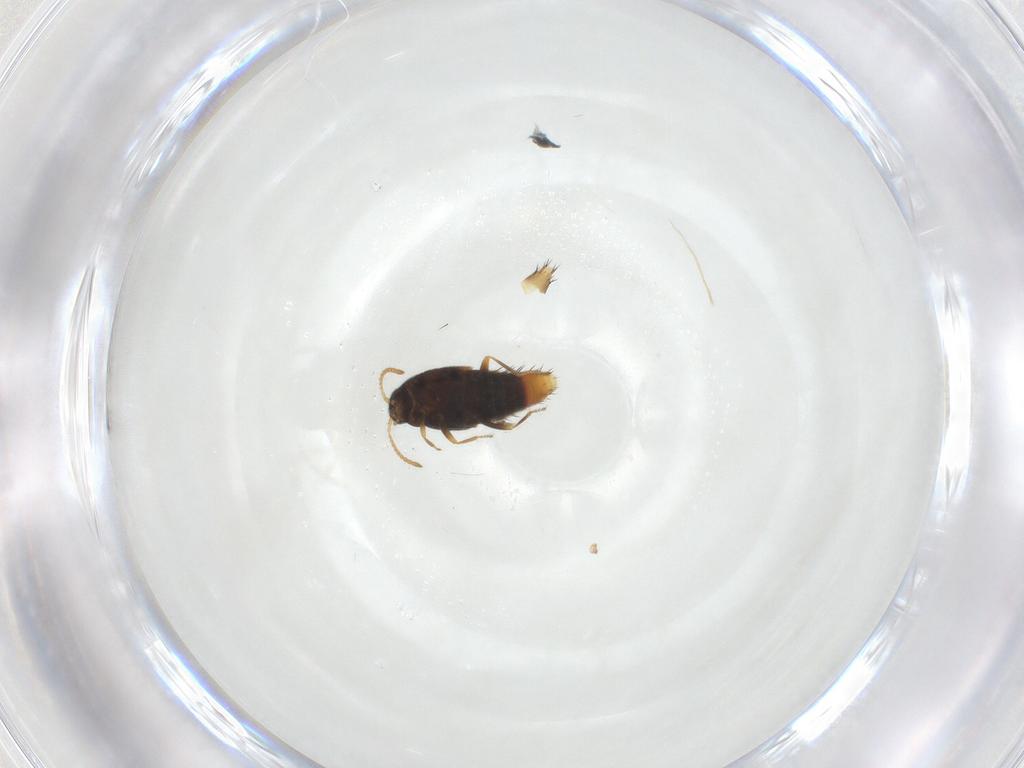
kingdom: Animalia
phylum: Arthropoda
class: Insecta
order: Coleoptera
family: Staphylinidae
